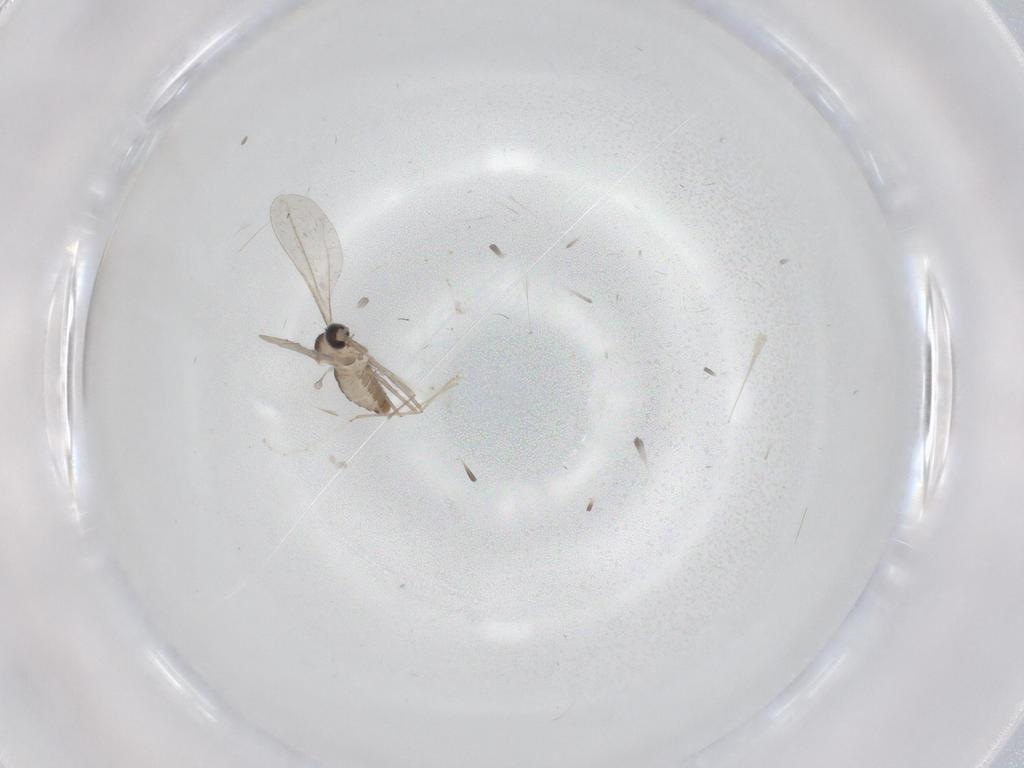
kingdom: Animalia
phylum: Arthropoda
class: Insecta
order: Diptera
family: Cecidomyiidae
